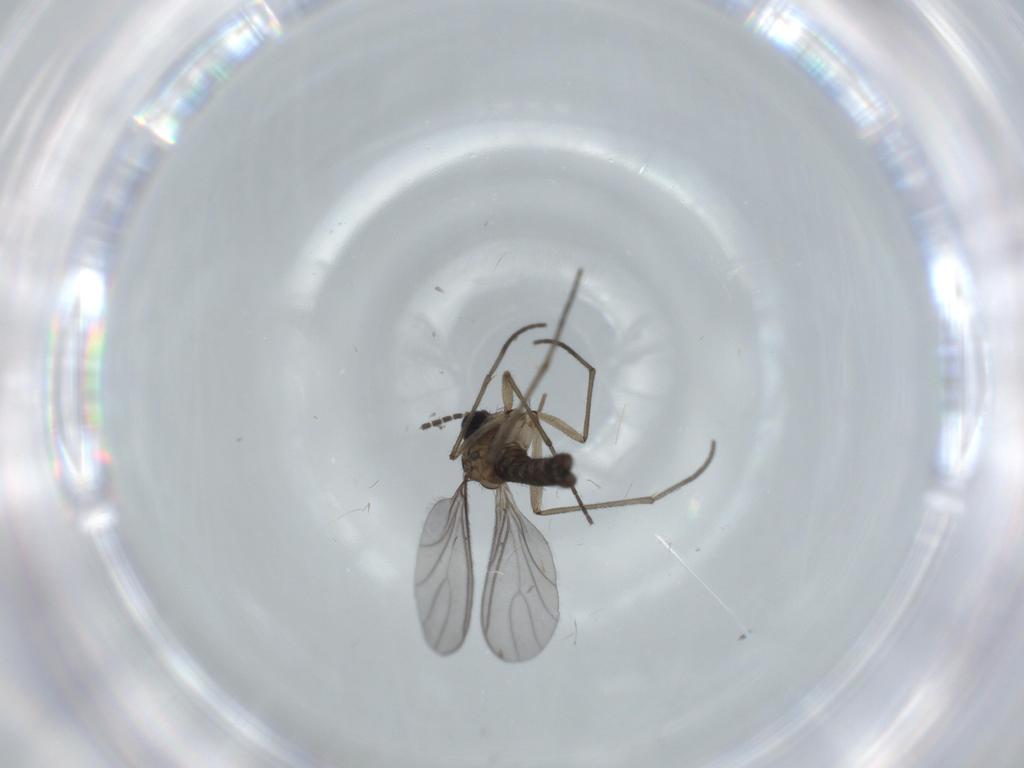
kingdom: Animalia
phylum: Arthropoda
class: Insecta
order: Diptera
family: Sciaridae
